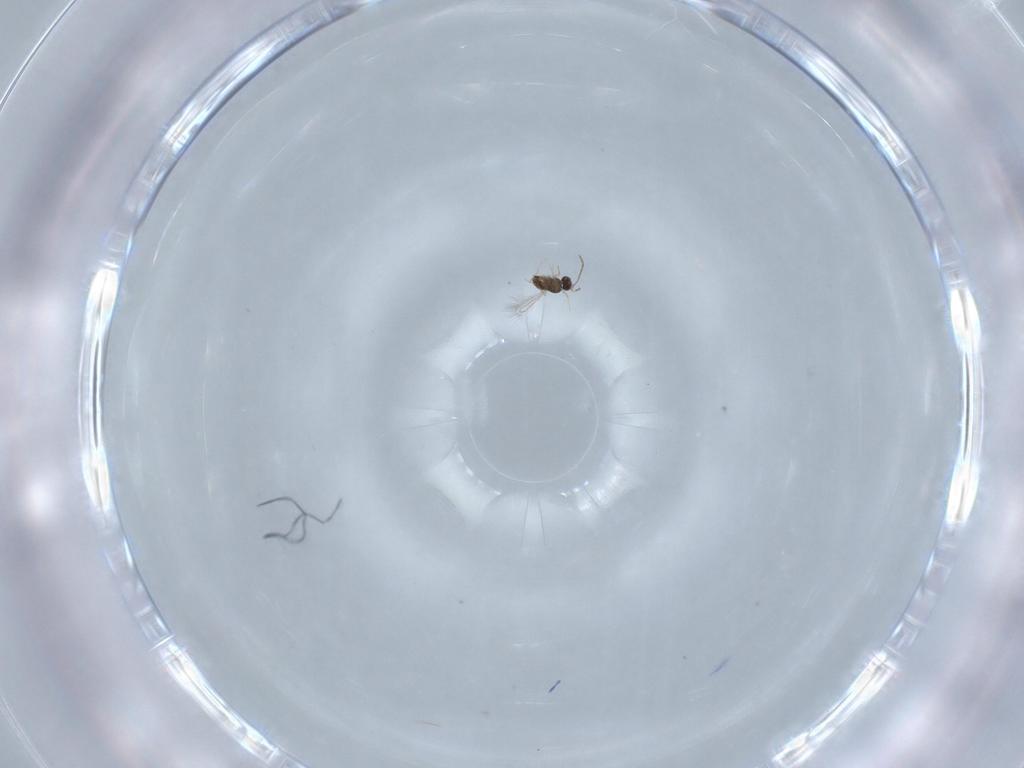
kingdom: Animalia
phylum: Arthropoda
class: Insecta
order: Hymenoptera
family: Mymaridae
